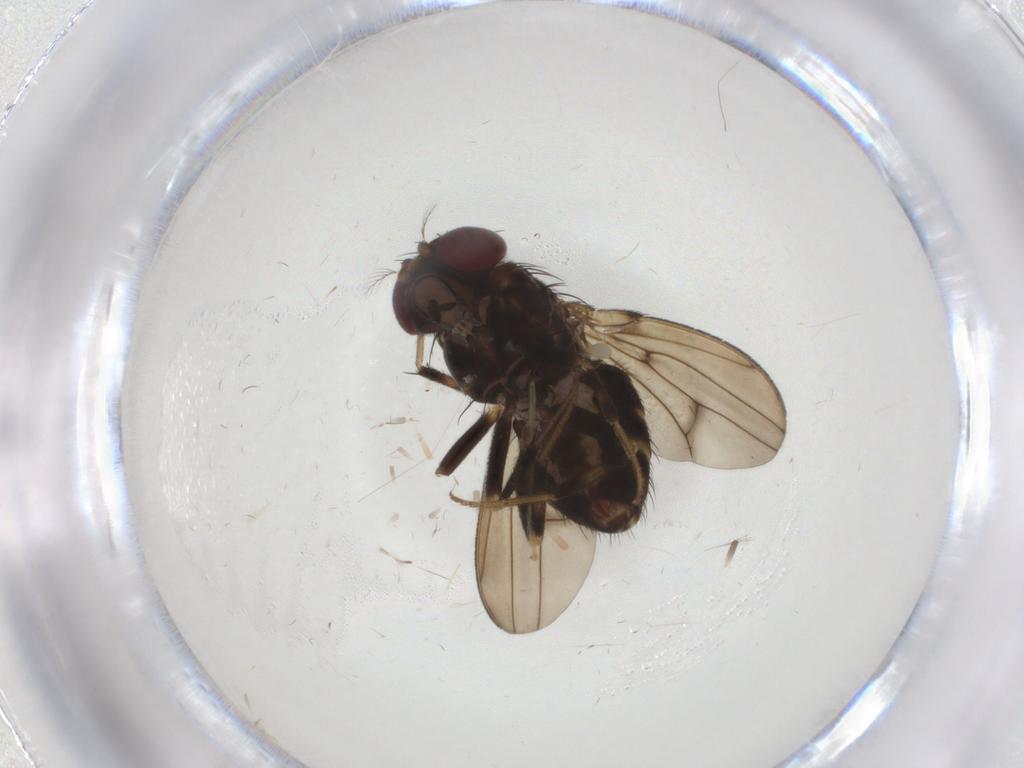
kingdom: Animalia
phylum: Arthropoda
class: Insecta
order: Diptera
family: Drosophilidae
